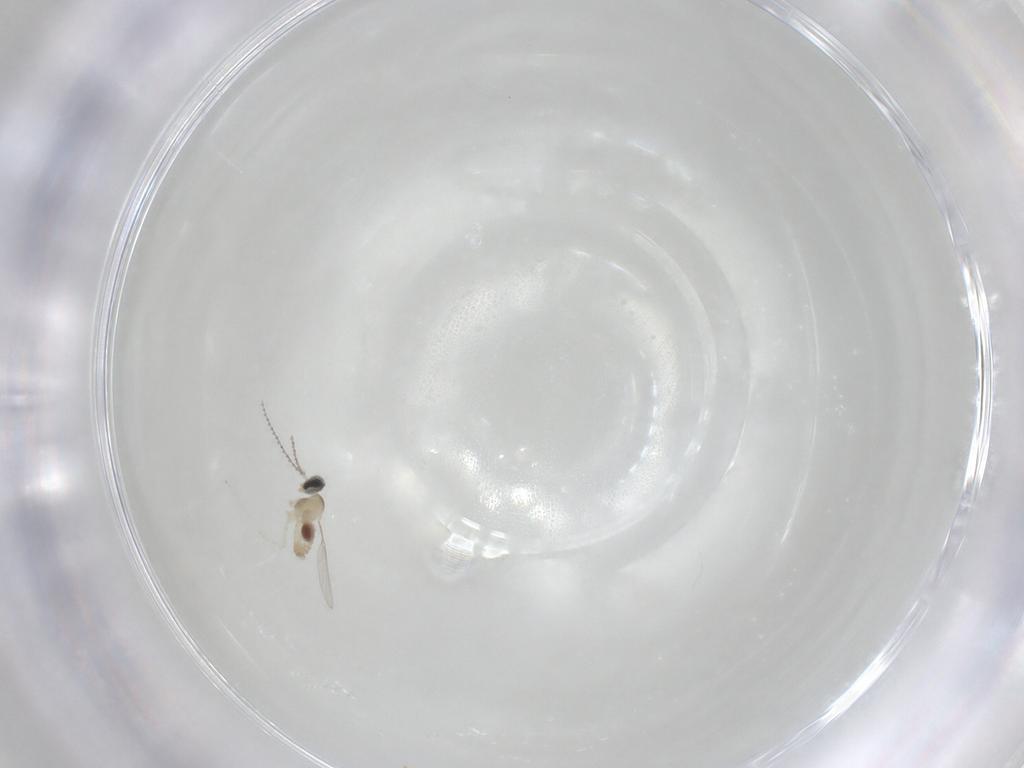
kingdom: Animalia
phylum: Arthropoda
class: Insecta
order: Diptera
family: Cecidomyiidae
